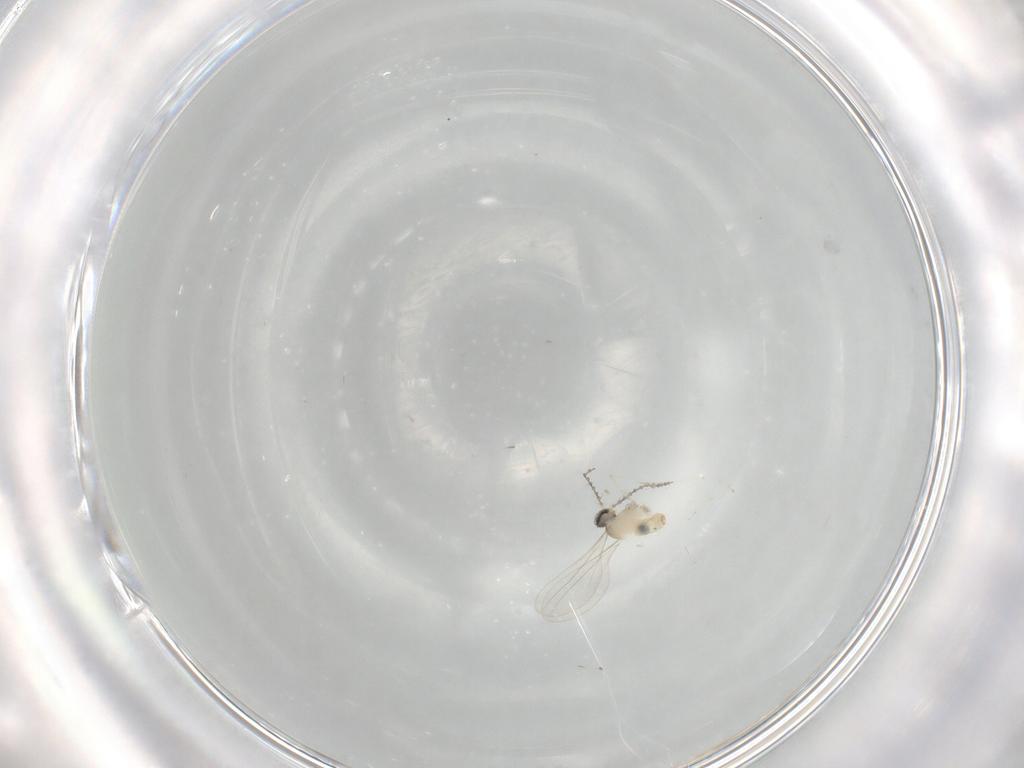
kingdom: Animalia
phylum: Arthropoda
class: Insecta
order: Diptera
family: Cecidomyiidae
